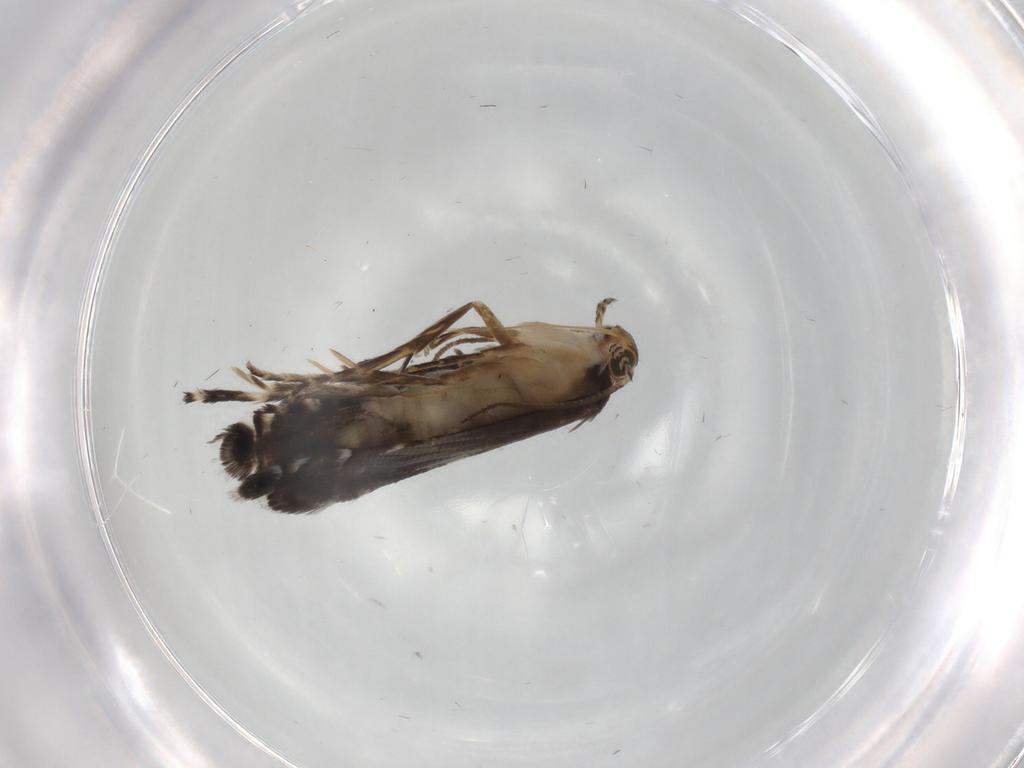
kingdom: Animalia
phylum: Arthropoda
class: Insecta
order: Lepidoptera
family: Glyphipterigidae
